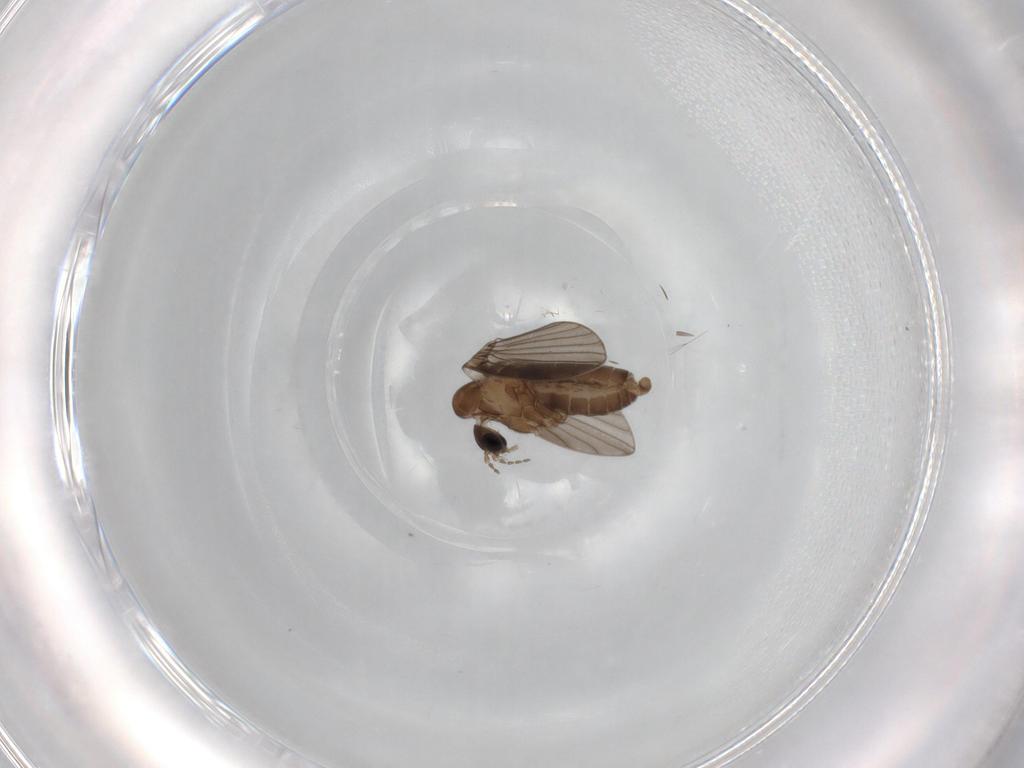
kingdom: Animalia
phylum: Arthropoda
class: Insecta
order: Diptera
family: Psychodidae
